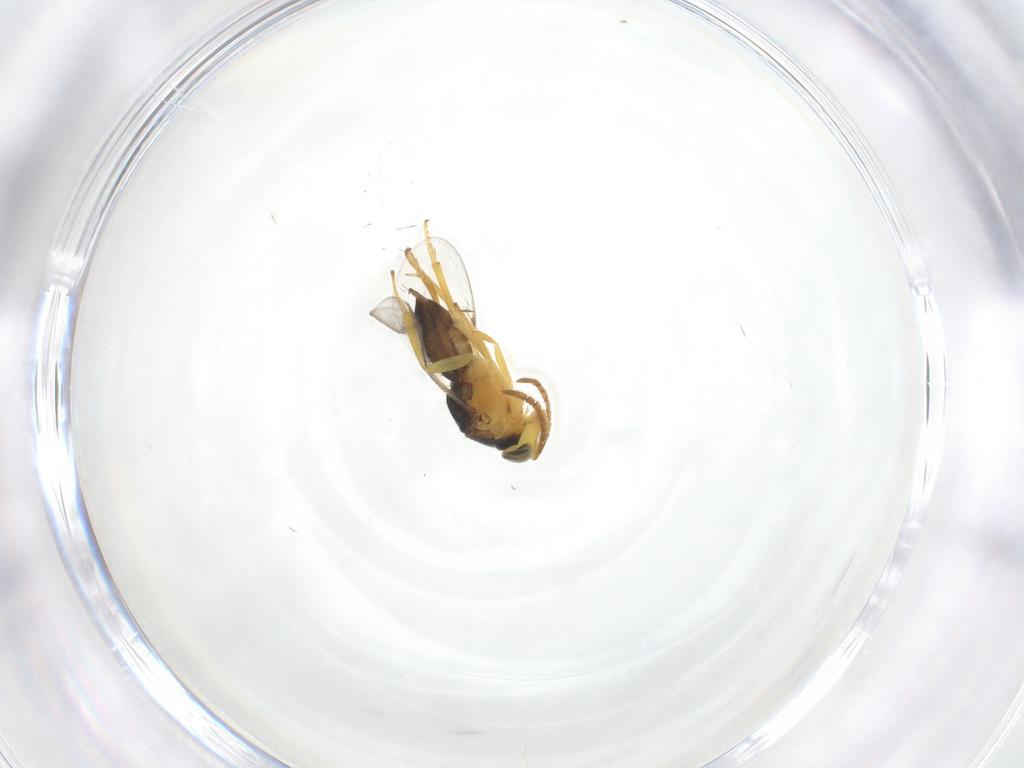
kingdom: Animalia
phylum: Arthropoda
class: Insecta
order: Hymenoptera
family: Encyrtidae
